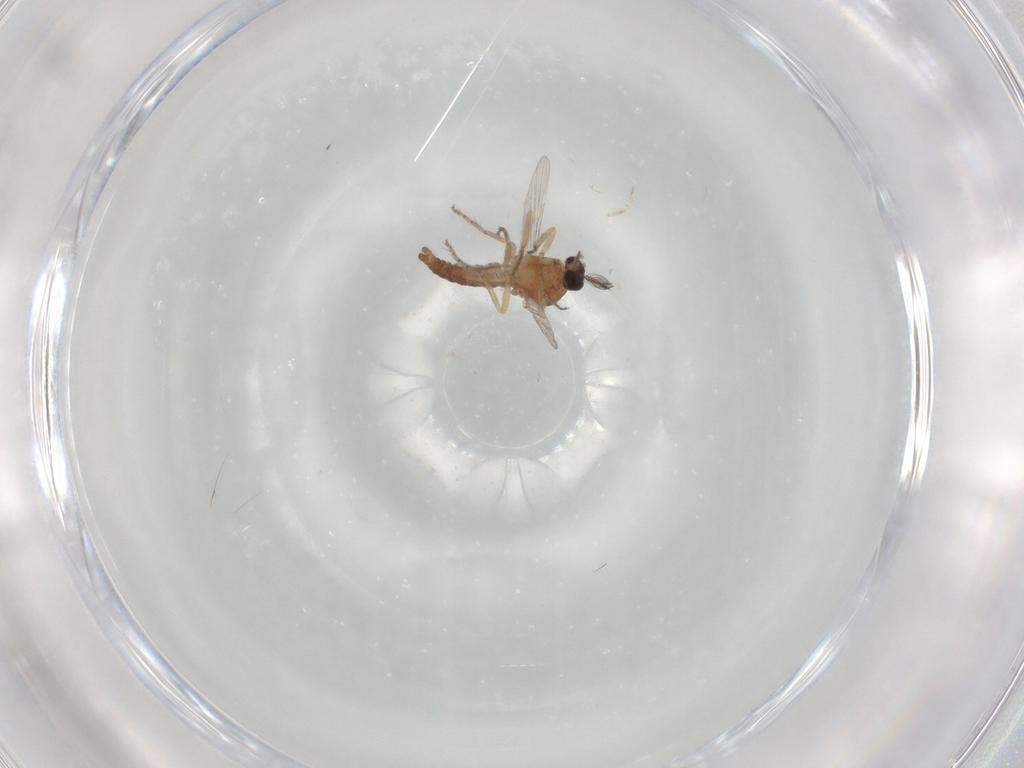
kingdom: Animalia
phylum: Arthropoda
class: Insecta
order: Diptera
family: Ceratopogonidae
